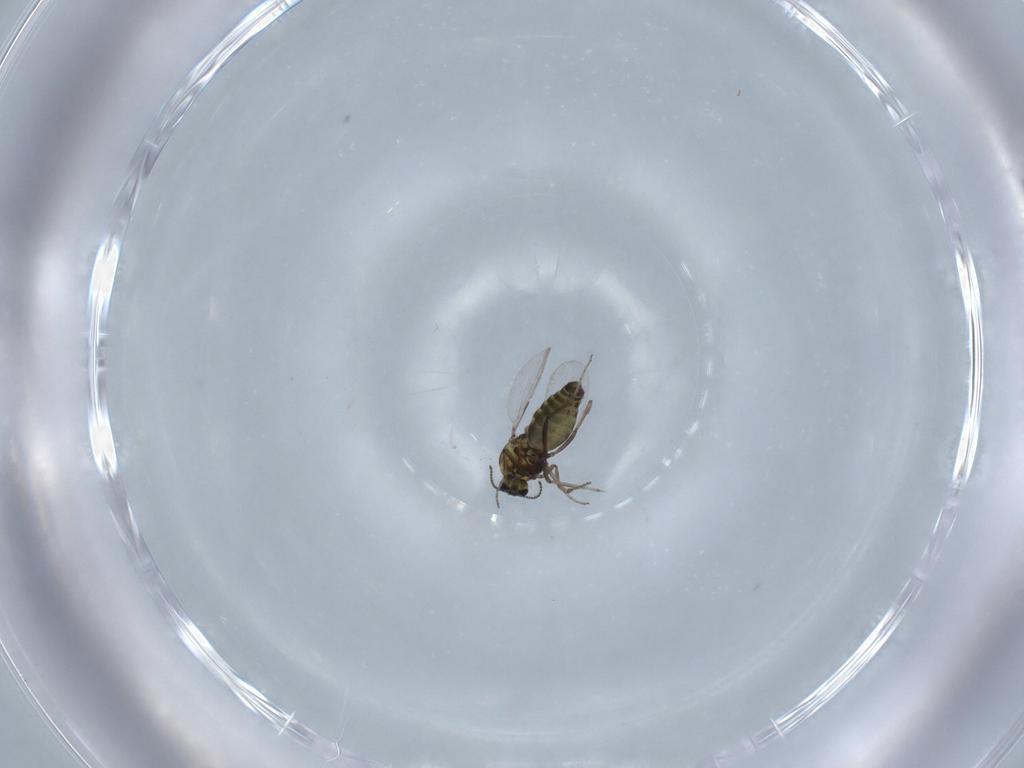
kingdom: Animalia
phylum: Arthropoda
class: Insecta
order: Diptera
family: Ceratopogonidae
